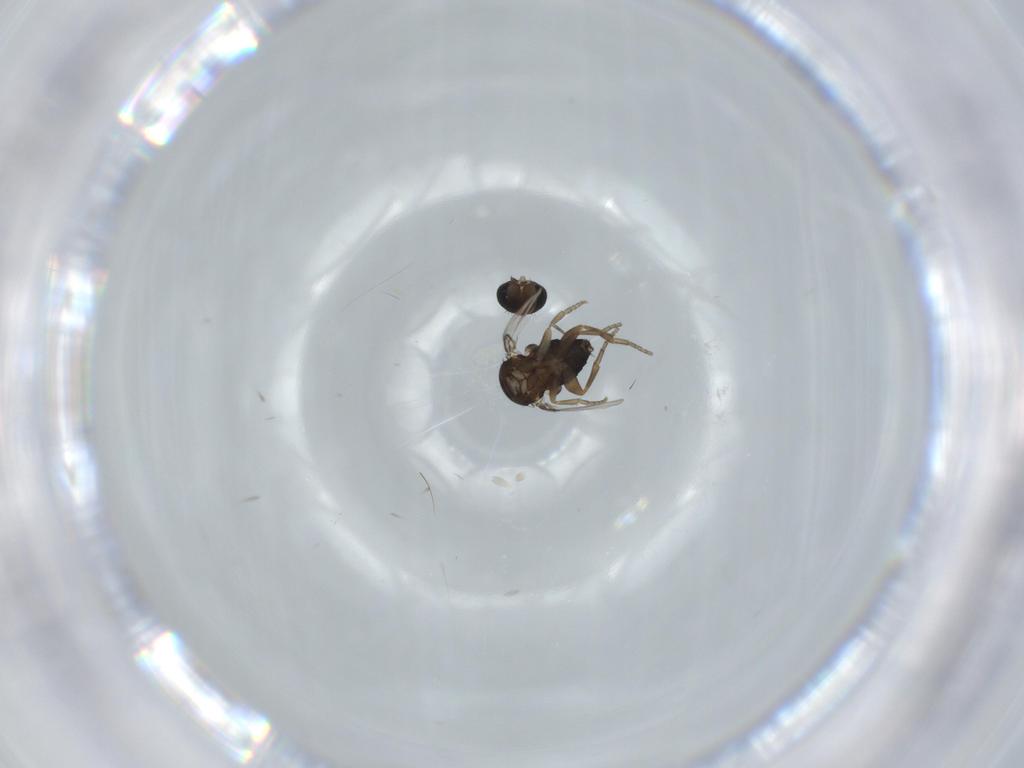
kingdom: Animalia
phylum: Arthropoda
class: Insecta
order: Diptera
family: Phoridae
